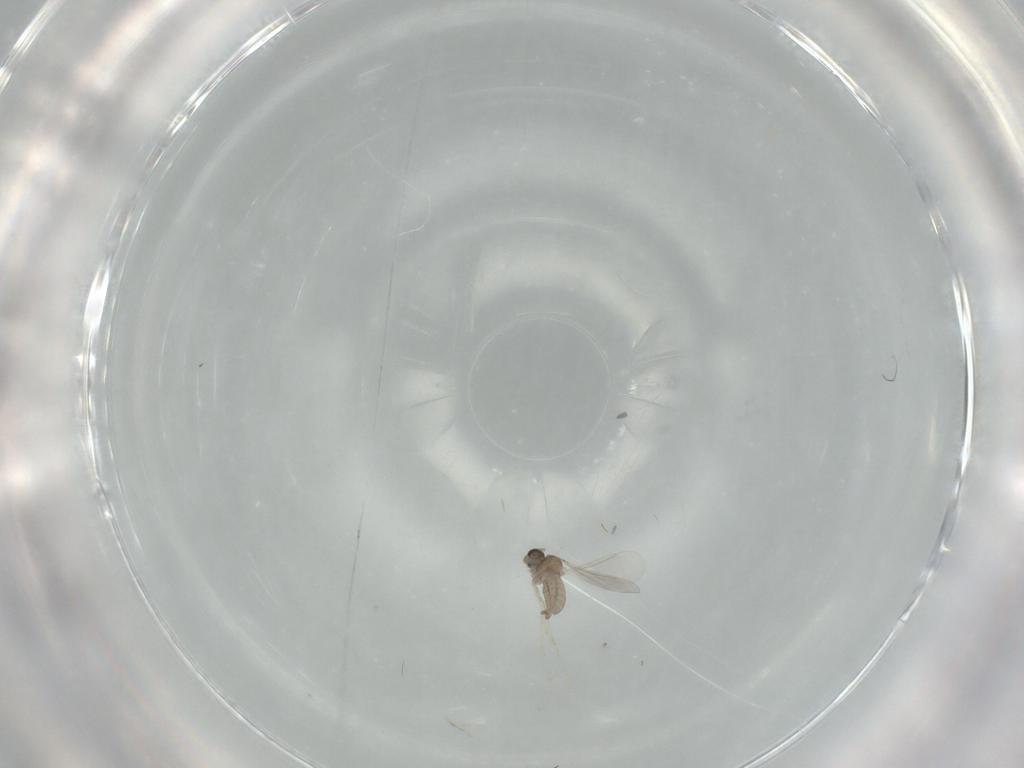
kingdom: Animalia
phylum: Arthropoda
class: Insecta
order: Diptera
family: Cecidomyiidae
